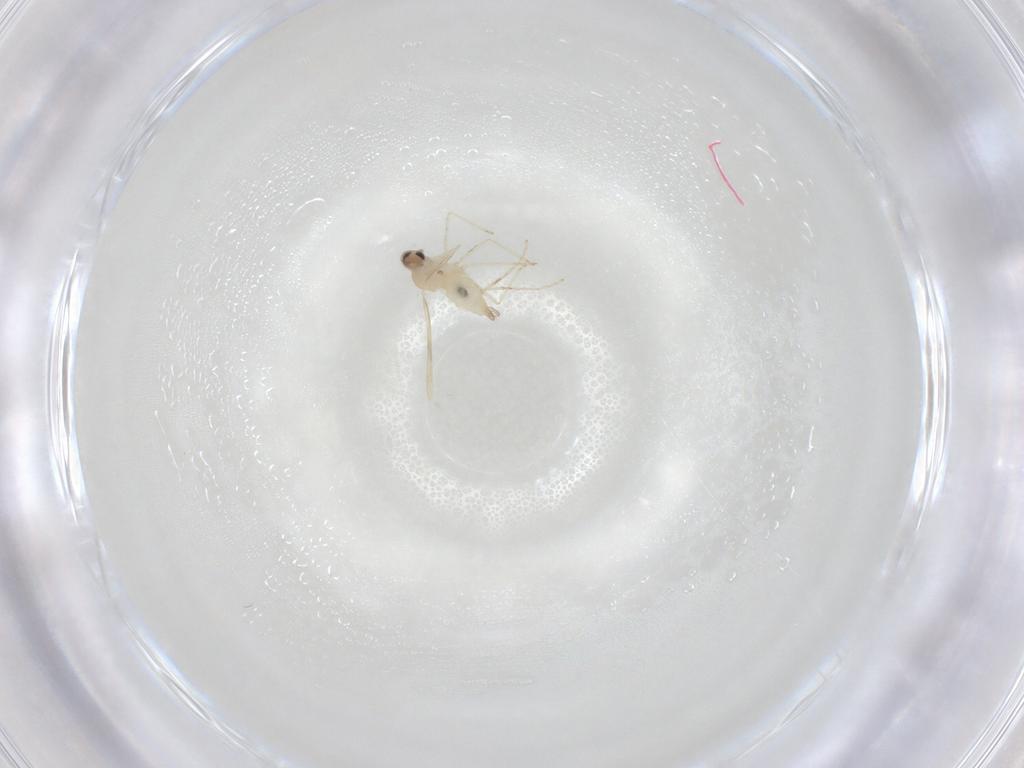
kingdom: Animalia
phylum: Arthropoda
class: Insecta
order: Diptera
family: Cecidomyiidae
